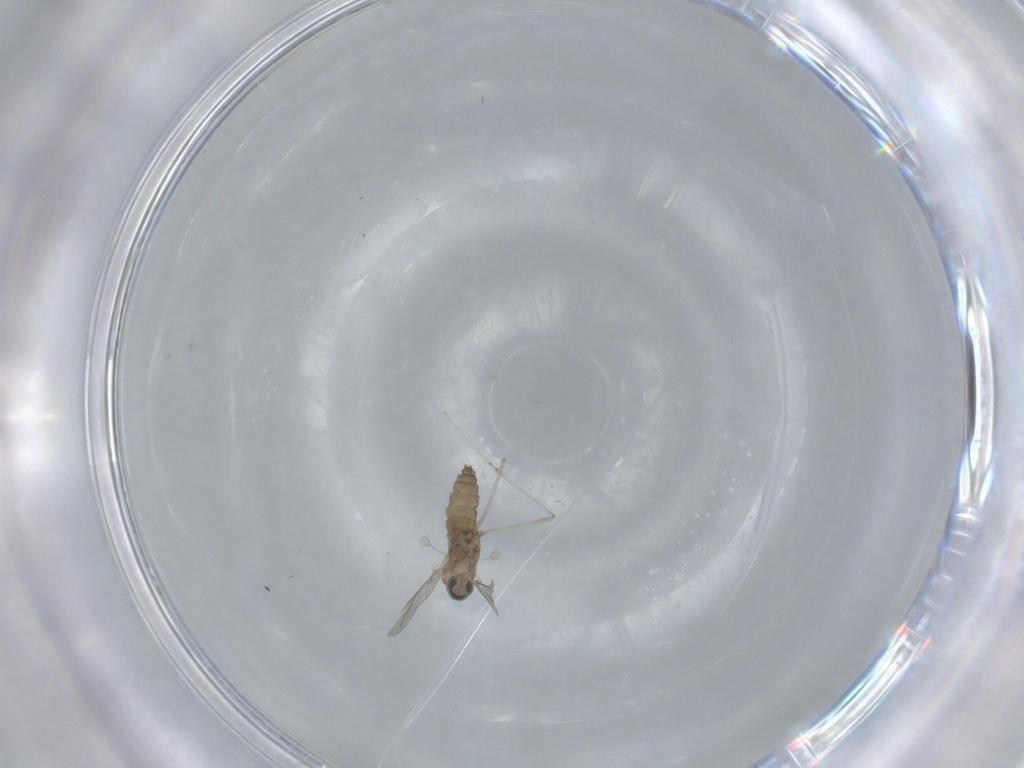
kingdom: Animalia
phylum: Arthropoda
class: Insecta
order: Diptera
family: Cecidomyiidae
